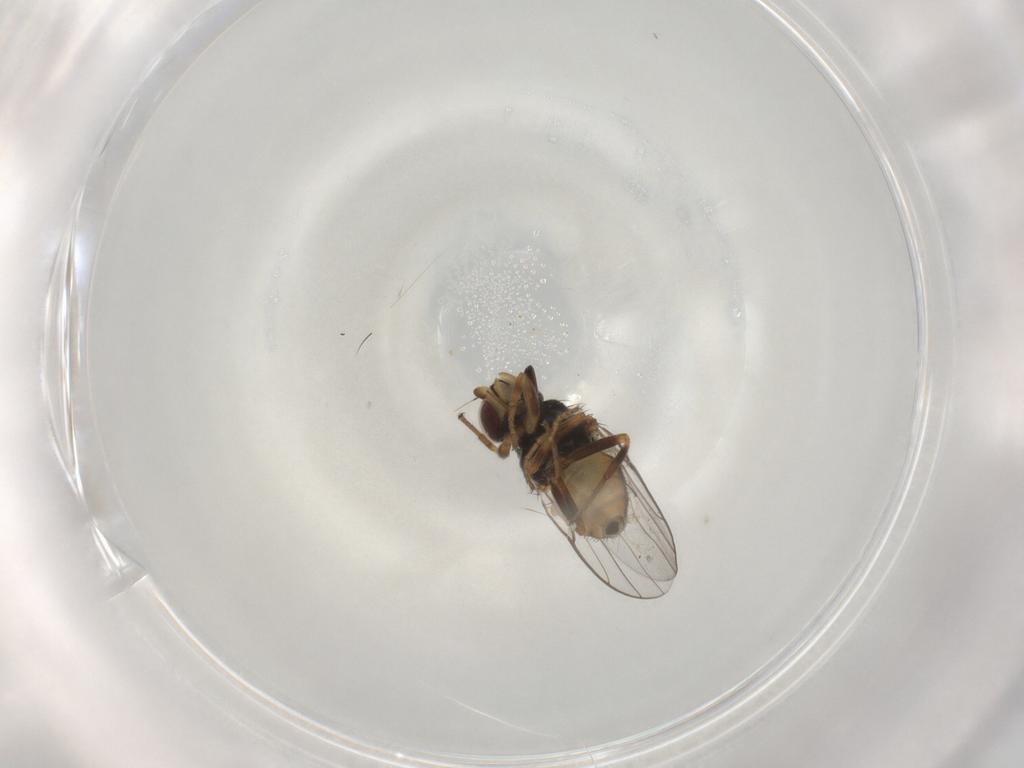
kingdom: Animalia
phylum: Arthropoda
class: Insecta
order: Diptera
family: Chloropidae
